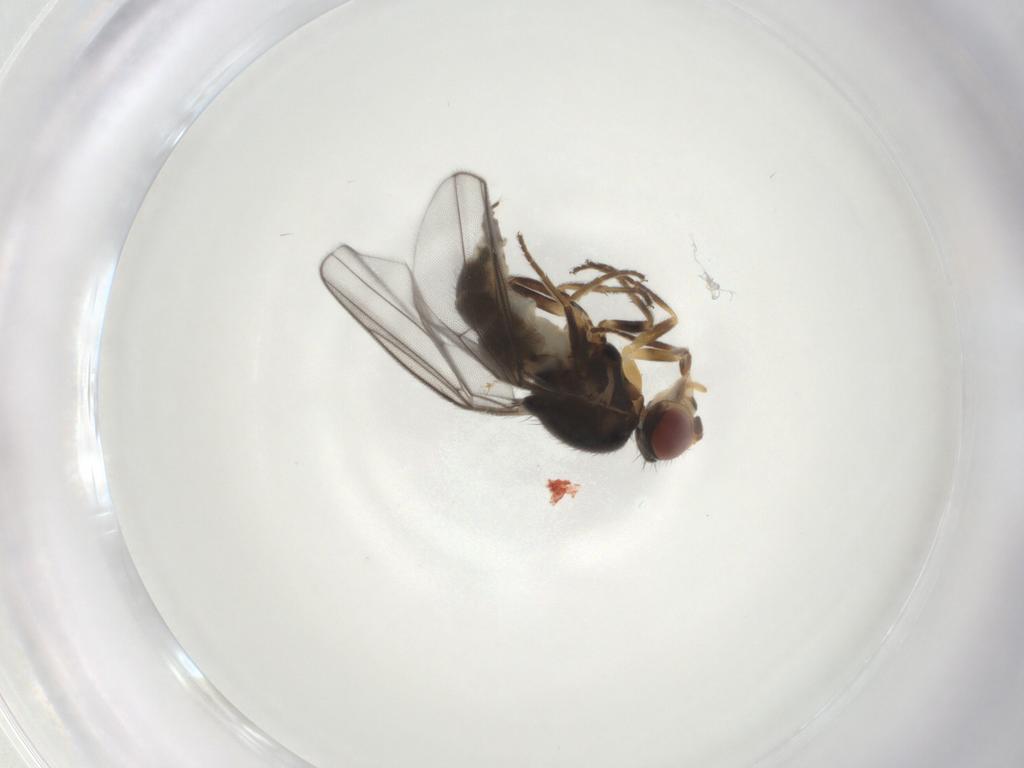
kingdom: Animalia
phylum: Arthropoda
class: Insecta
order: Diptera
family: Chloropidae
